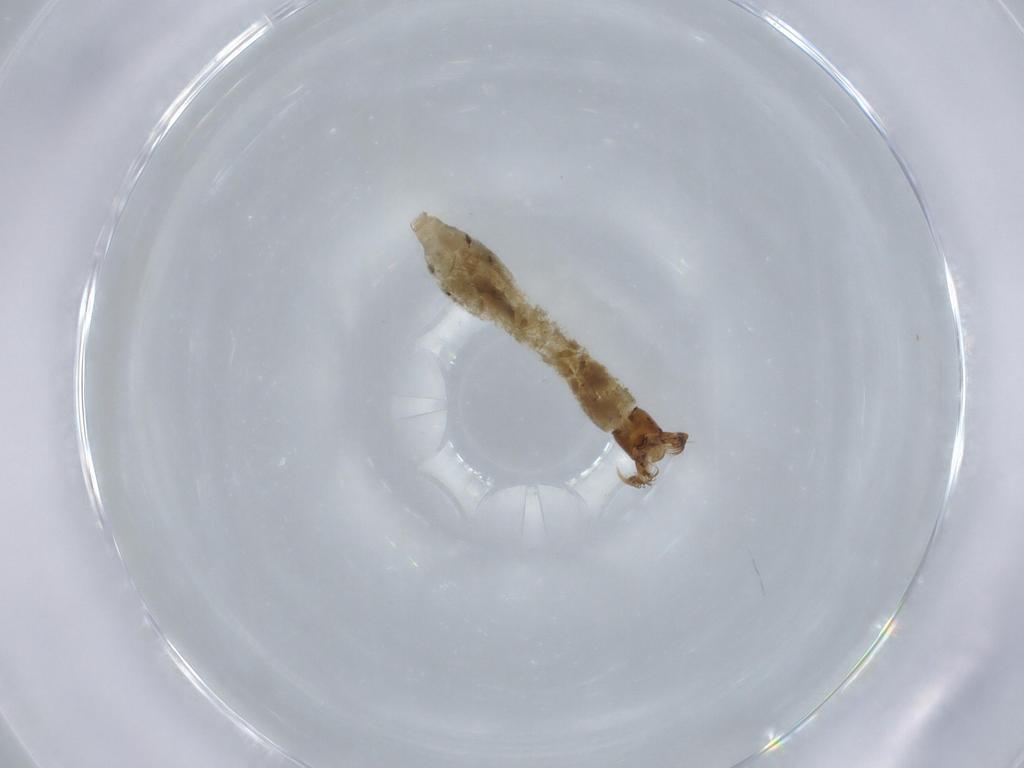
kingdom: Animalia
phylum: Arthropoda
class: Insecta
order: Diptera
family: Simuliidae
